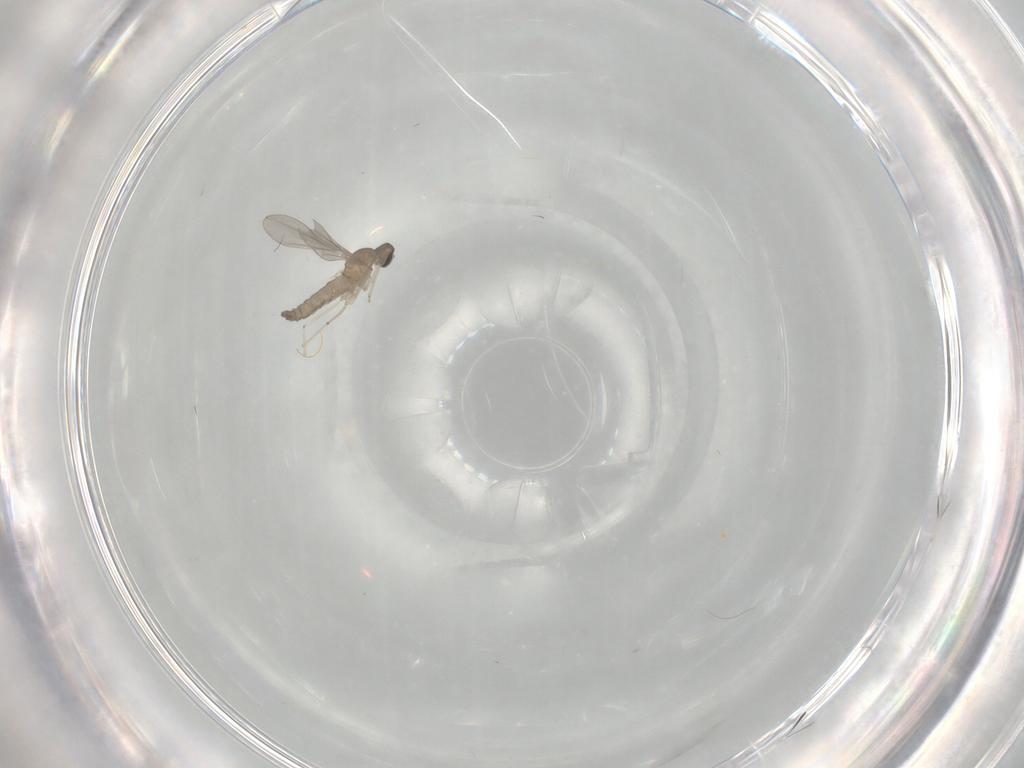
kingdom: Animalia
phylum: Arthropoda
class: Insecta
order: Diptera
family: Cecidomyiidae
